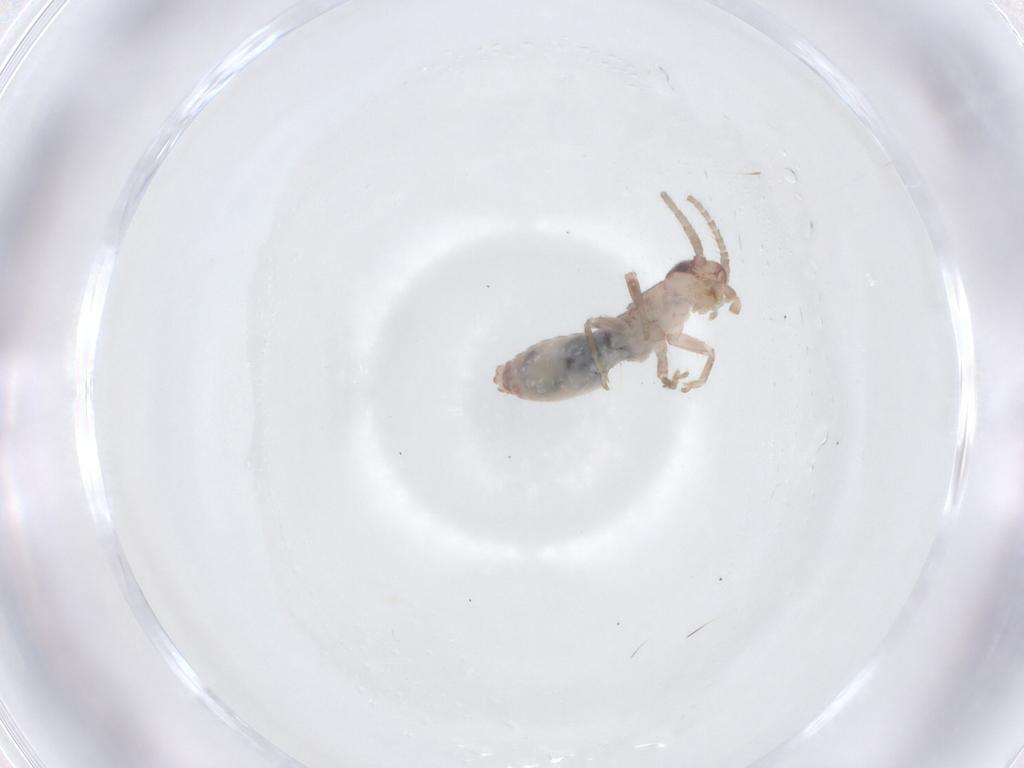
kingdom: Animalia
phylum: Arthropoda
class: Insecta
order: Orthoptera
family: Mogoplistidae
